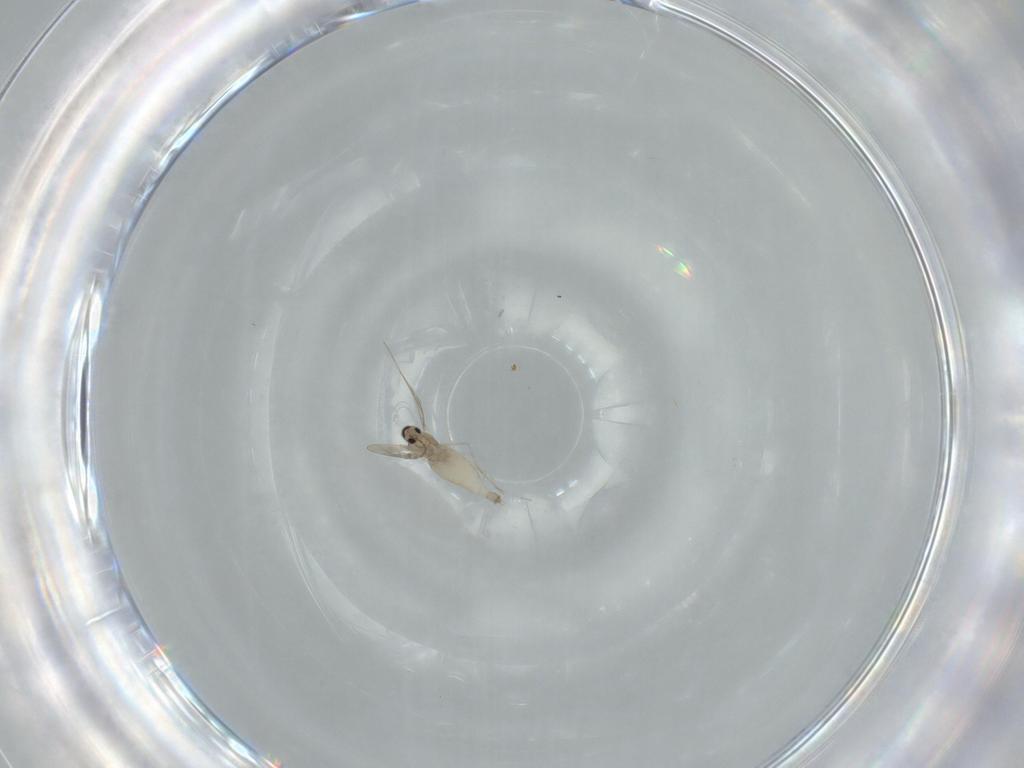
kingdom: Animalia
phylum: Arthropoda
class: Insecta
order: Diptera
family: Cecidomyiidae
